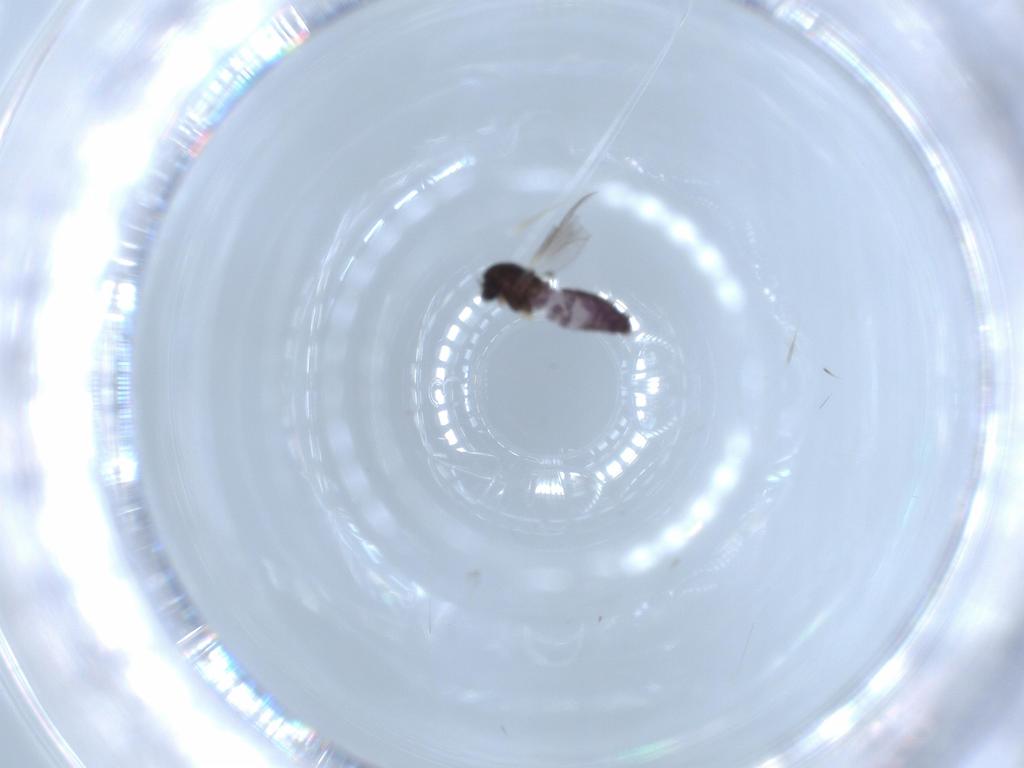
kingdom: Animalia
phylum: Arthropoda
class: Insecta
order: Diptera
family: Chironomidae
